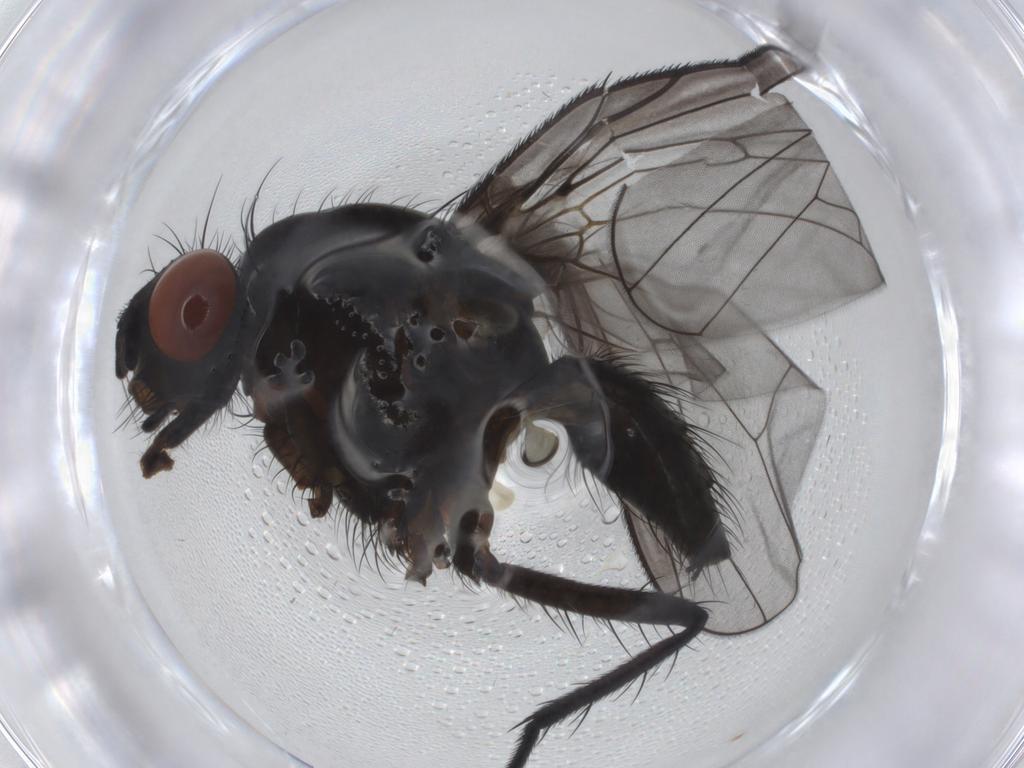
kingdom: Animalia
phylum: Arthropoda
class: Insecta
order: Diptera
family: Anthomyiidae
